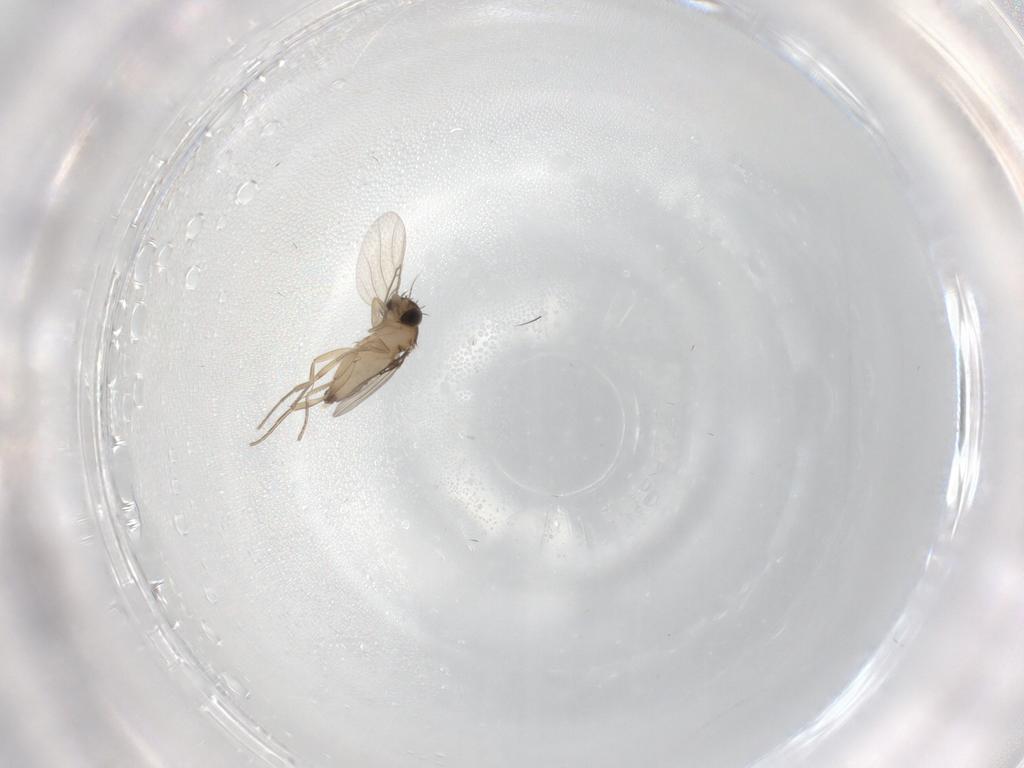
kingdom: Animalia
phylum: Arthropoda
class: Insecta
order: Diptera
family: Phoridae
